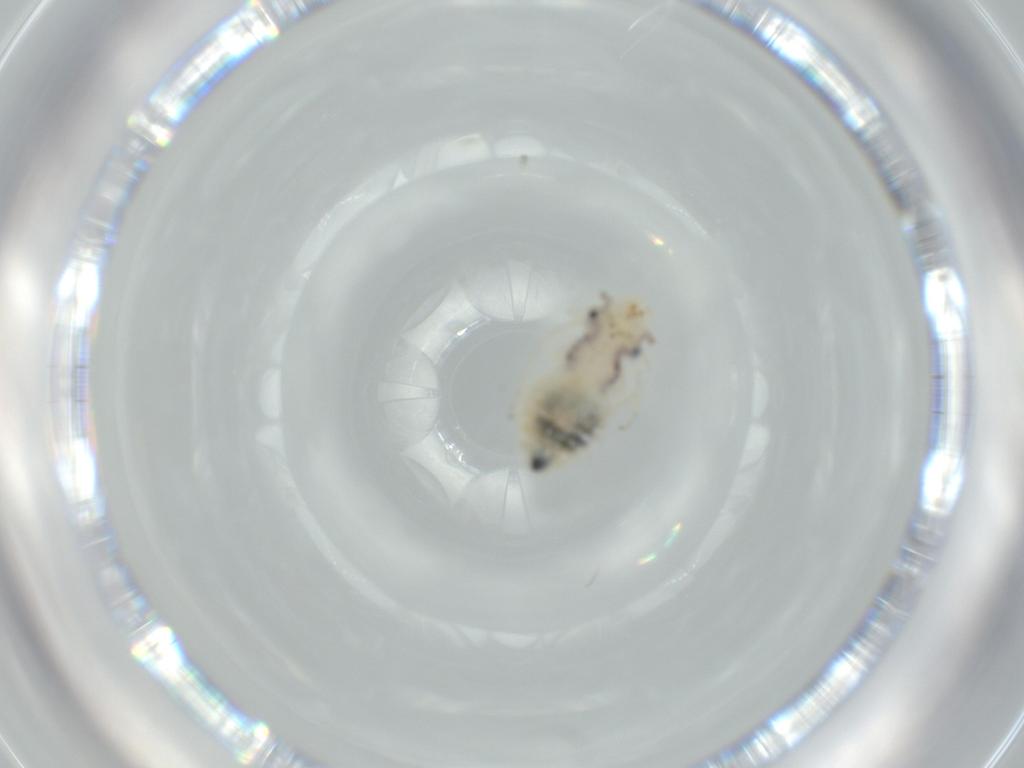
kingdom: Animalia
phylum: Arthropoda
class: Insecta
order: Psocodea
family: Pseudocaeciliidae
